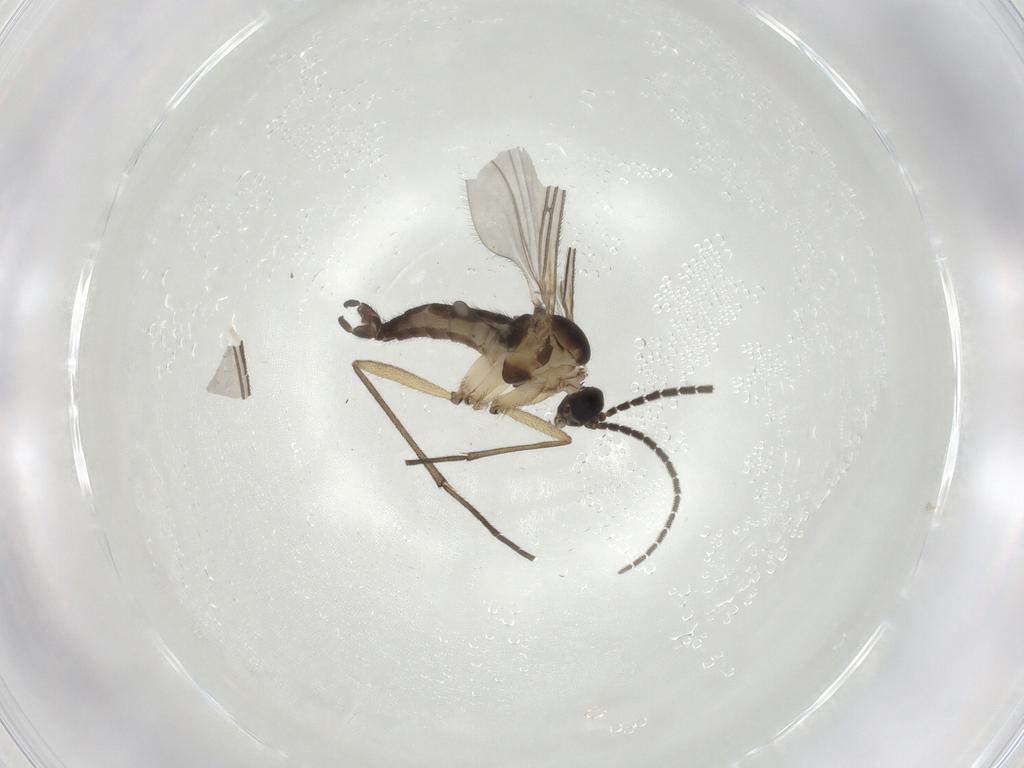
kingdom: Animalia
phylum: Arthropoda
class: Insecta
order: Diptera
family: Sciaridae
